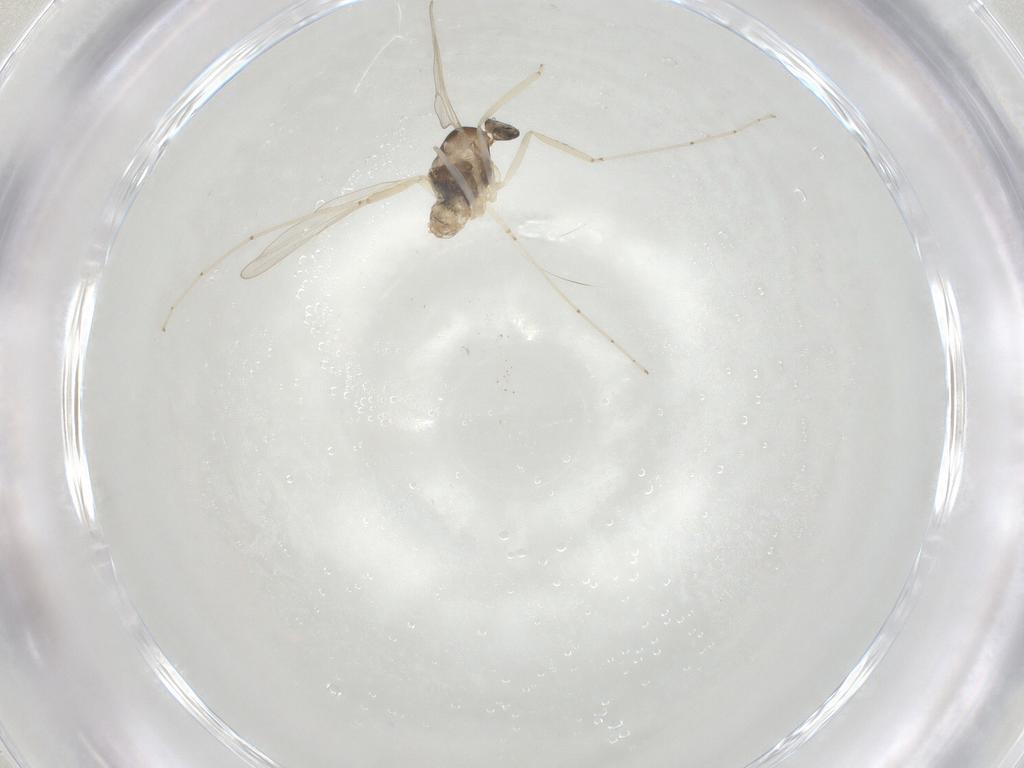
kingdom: Animalia
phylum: Arthropoda
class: Insecta
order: Diptera
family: Cecidomyiidae
